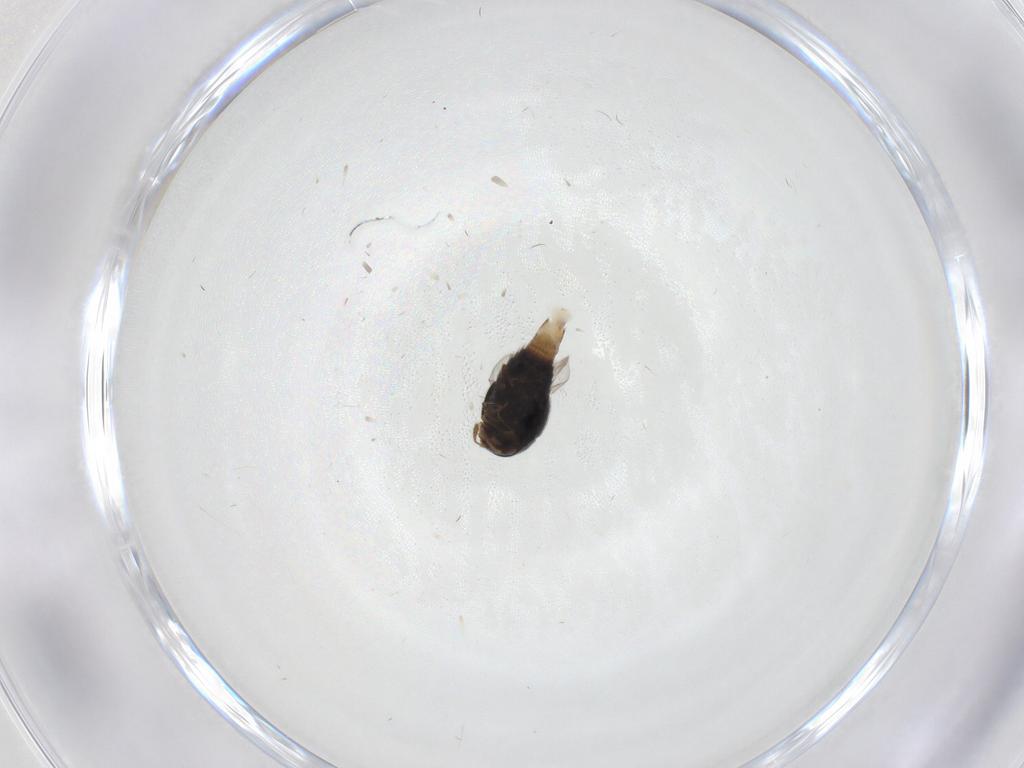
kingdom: Animalia
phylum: Arthropoda
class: Insecta
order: Coleoptera
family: Staphylinidae
